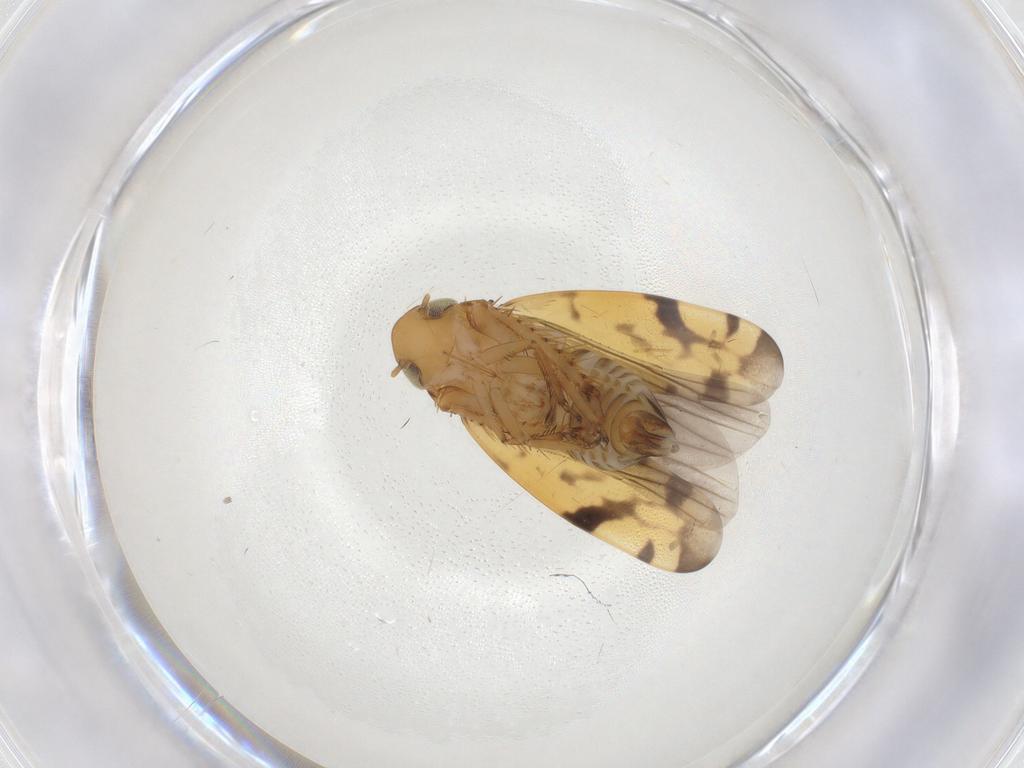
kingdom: Animalia
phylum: Arthropoda
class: Insecta
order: Hemiptera
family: Cicadellidae
